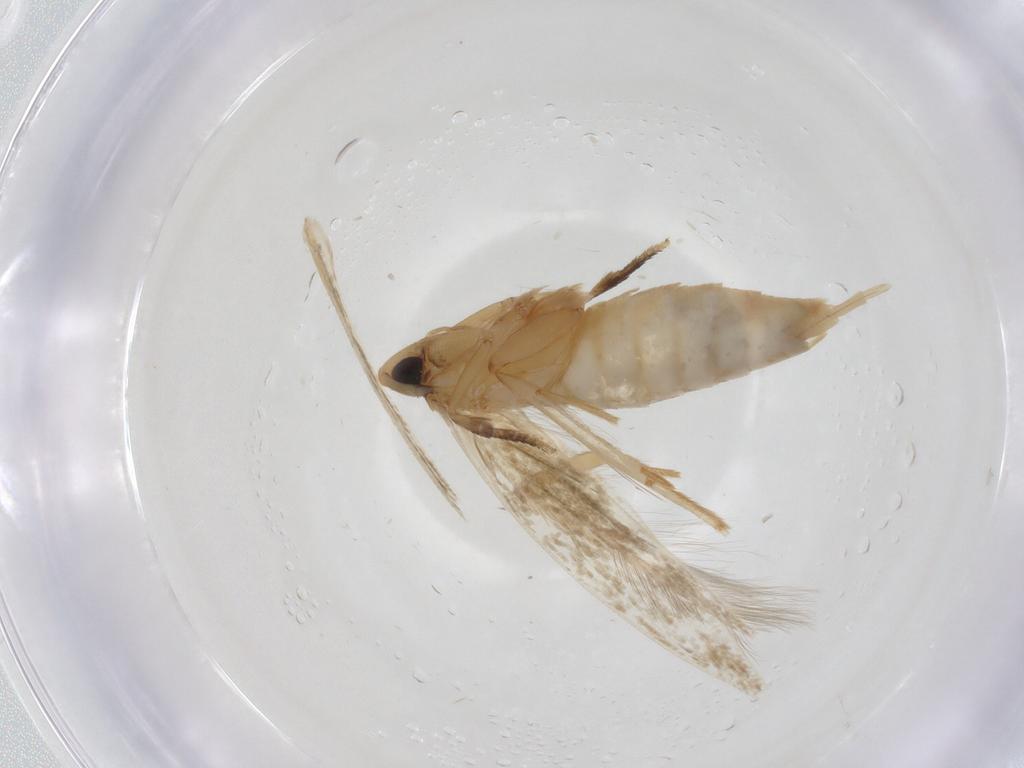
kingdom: Animalia
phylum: Arthropoda
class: Insecta
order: Lepidoptera
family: Tineidae
